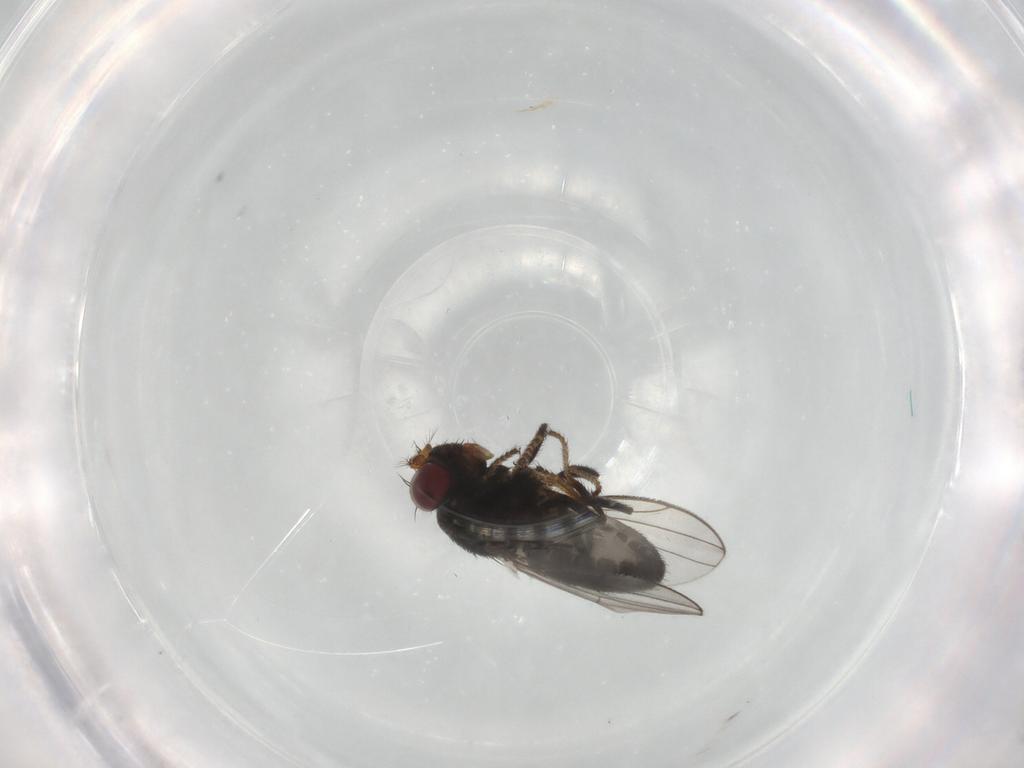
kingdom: Animalia
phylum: Arthropoda
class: Insecta
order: Diptera
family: Ephydridae
